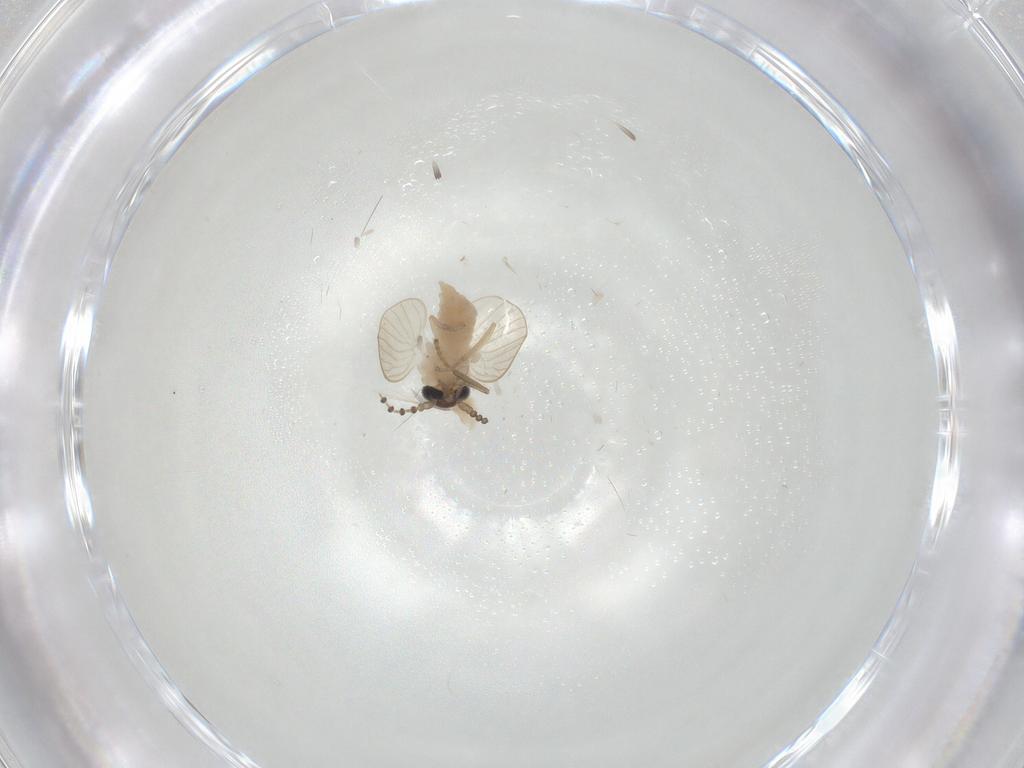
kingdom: Animalia
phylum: Arthropoda
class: Insecta
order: Diptera
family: Psychodidae
